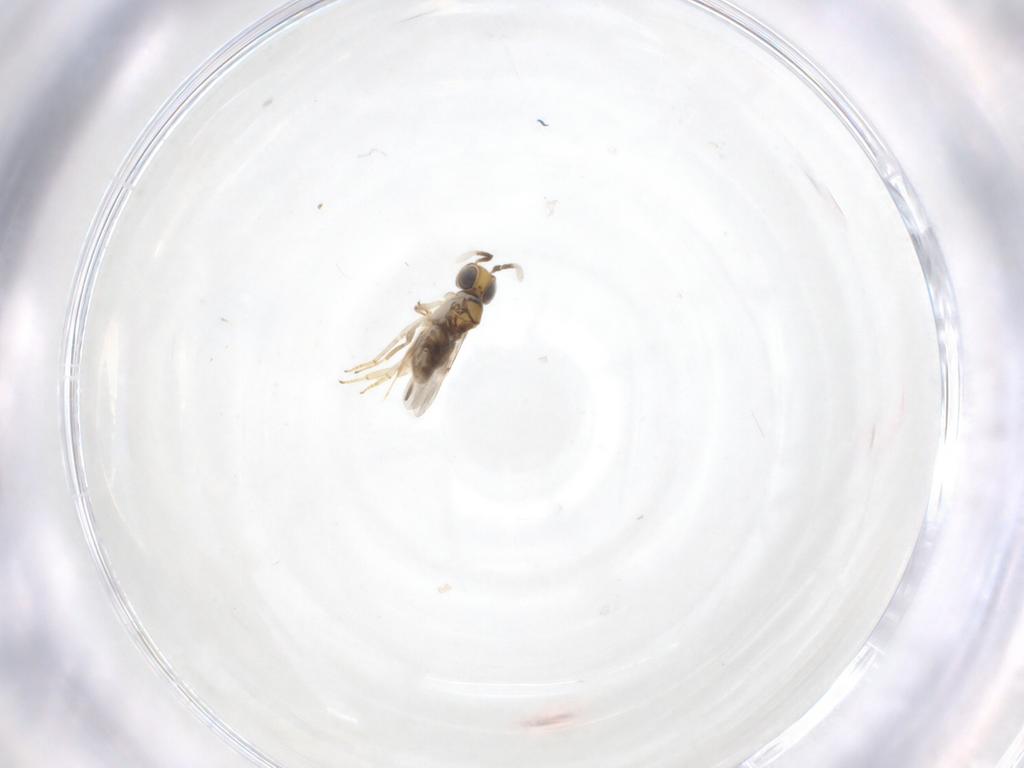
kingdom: Animalia
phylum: Arthropoda
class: Insecta
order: Hymenoptera
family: Encyrtidae
